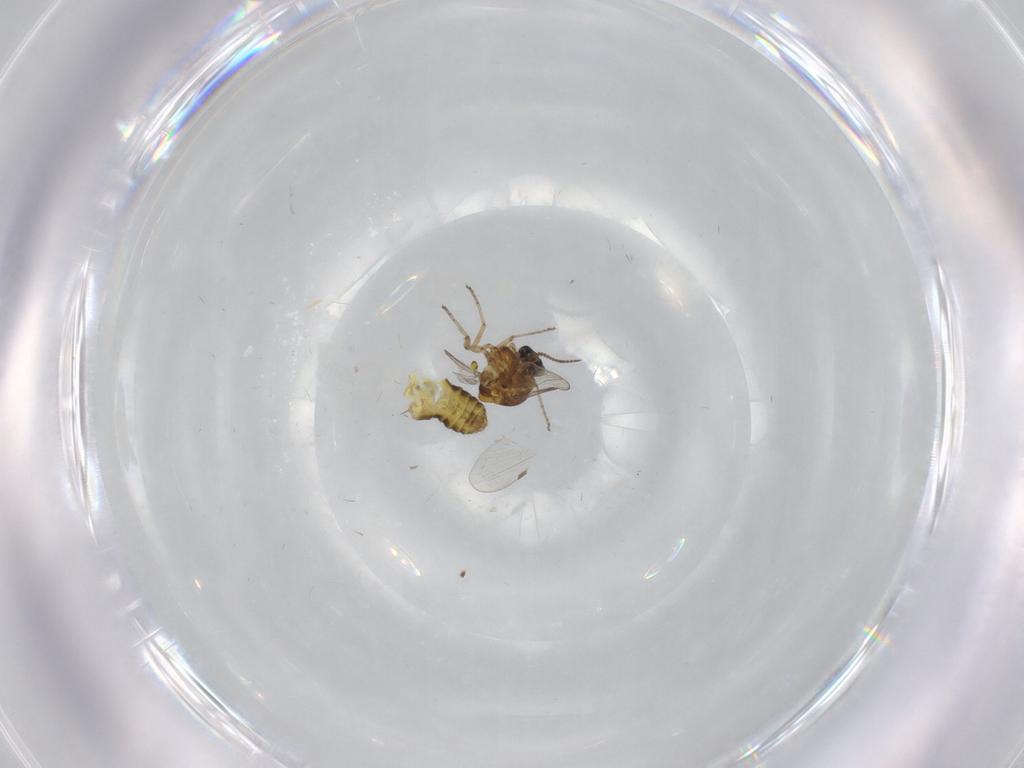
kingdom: Animalia
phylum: Arthropoda
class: Insecta
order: Diptera
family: Ceratopogonidae
